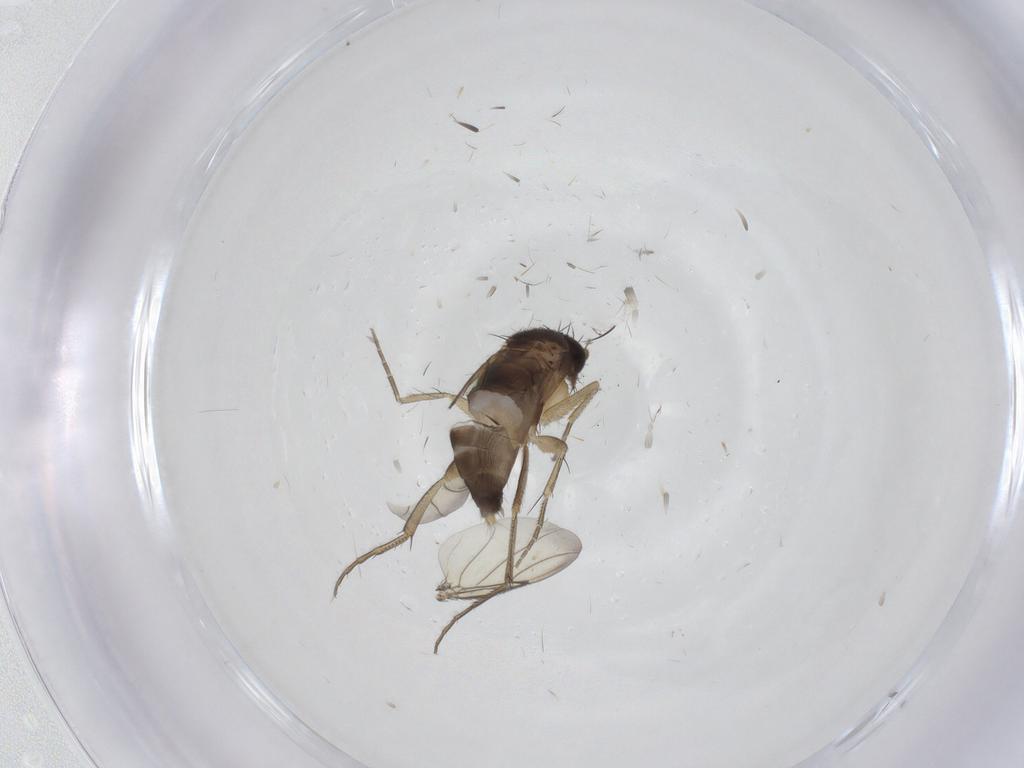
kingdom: Animalia
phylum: Arthropoda
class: Insecta
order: Diptera
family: Phoridae
